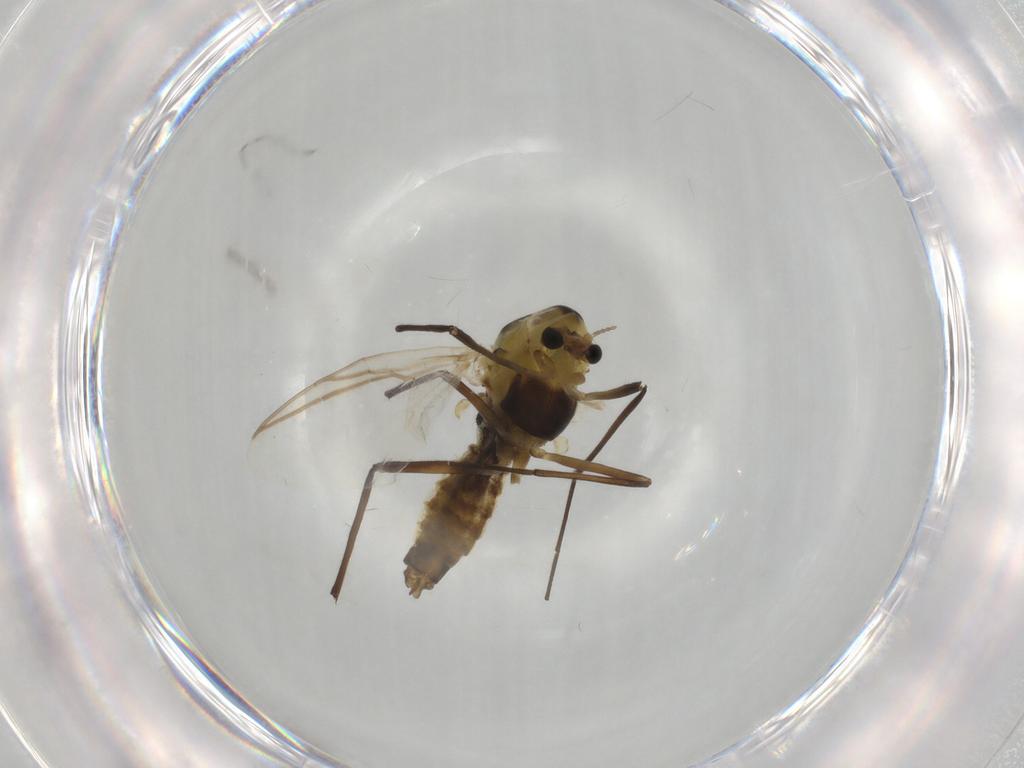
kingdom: Animalia
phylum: Arthropoda
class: Insecta
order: Diptera
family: Chironomidae
